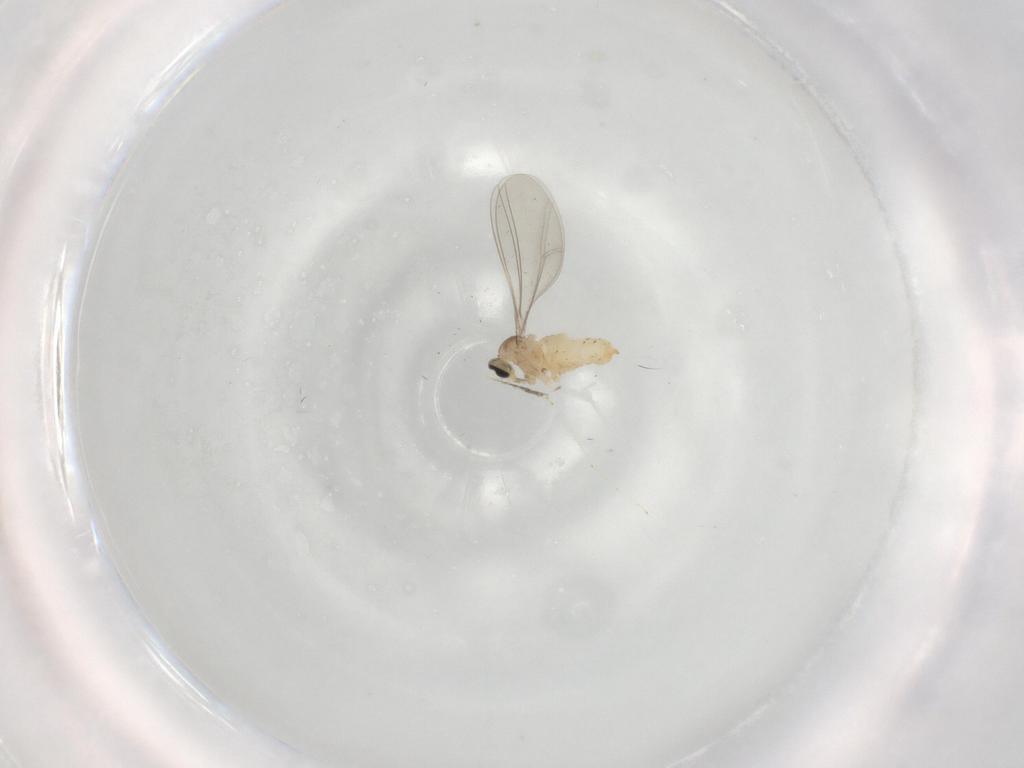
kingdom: Animalia
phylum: Arthropoda
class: Insecta
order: Diptera
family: Cecidomyiidae
